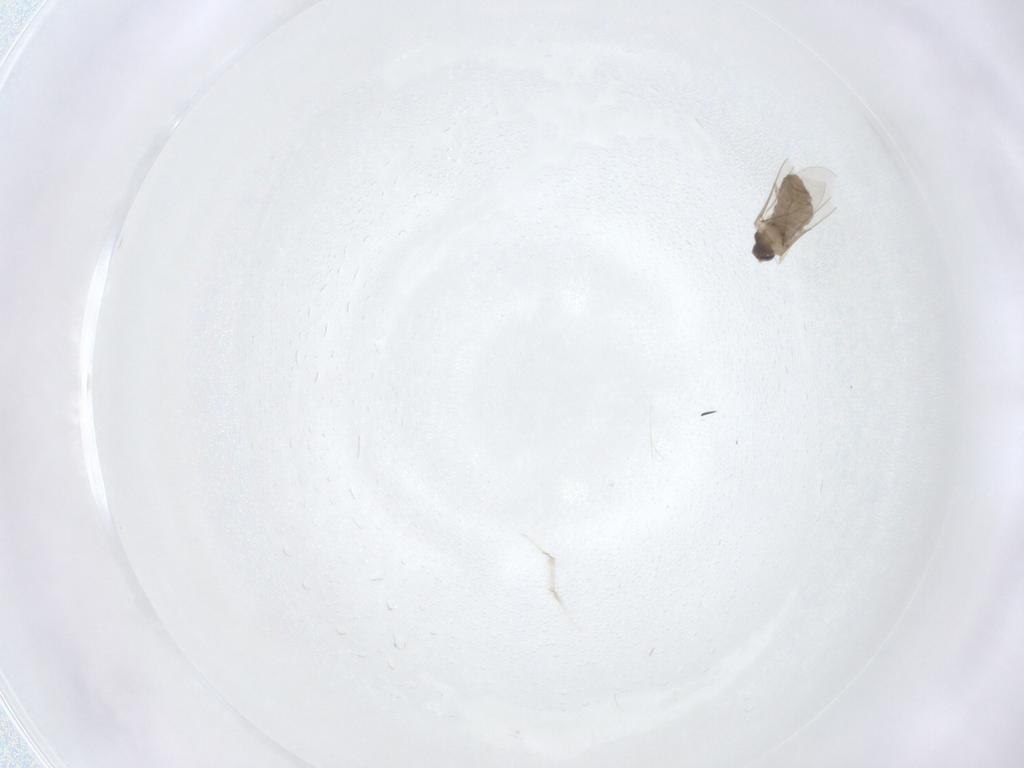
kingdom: Animalia
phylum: Arthropoda
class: Insecta
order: Diptera
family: Cecidomyiidae
